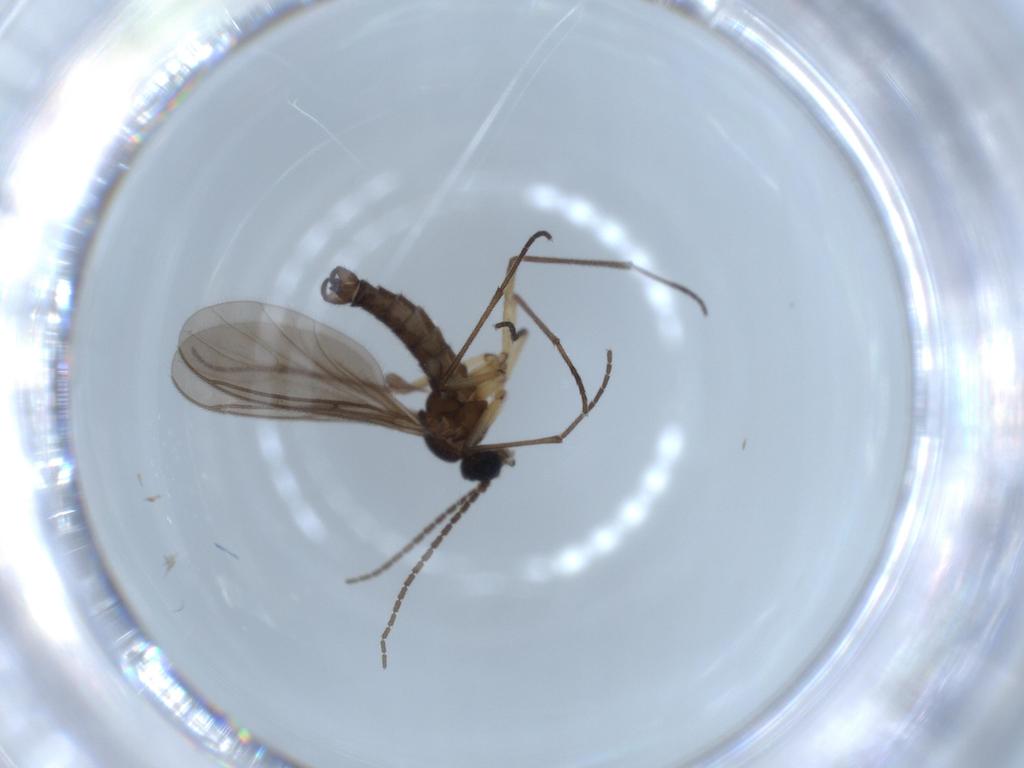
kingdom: Animalia
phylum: Arthropoda
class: Insecta
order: Diptera
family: Sciaridae
